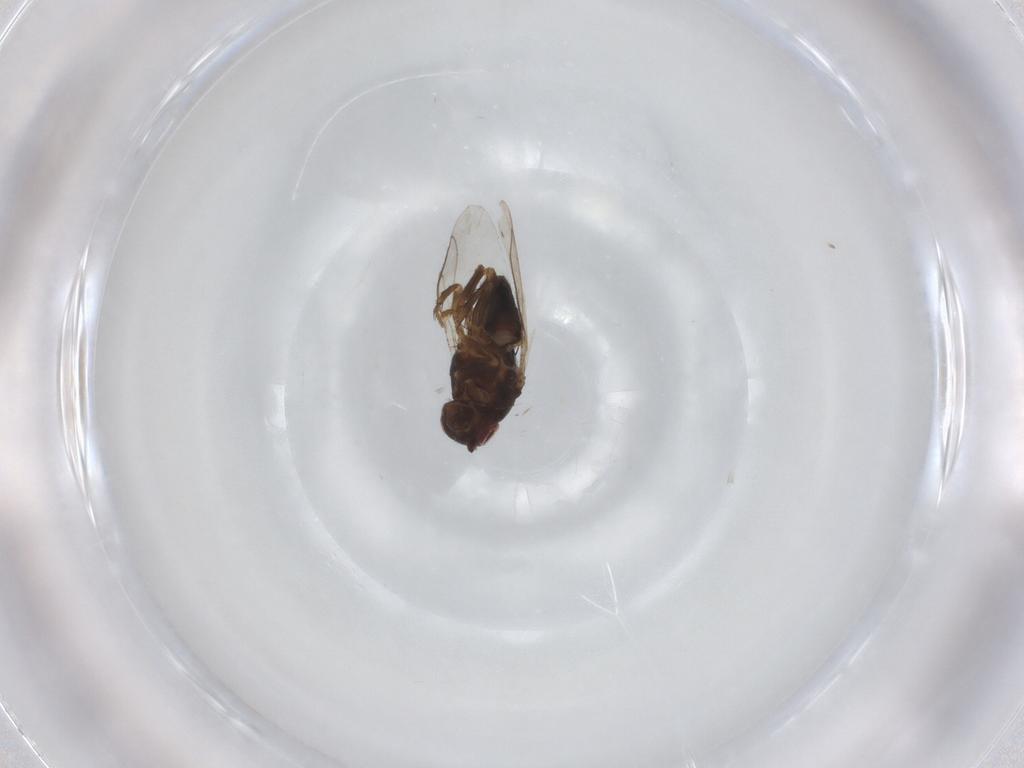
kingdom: Animalia
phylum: Arthropoda
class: Insecta
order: Diptera
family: Sphaeroceridae
